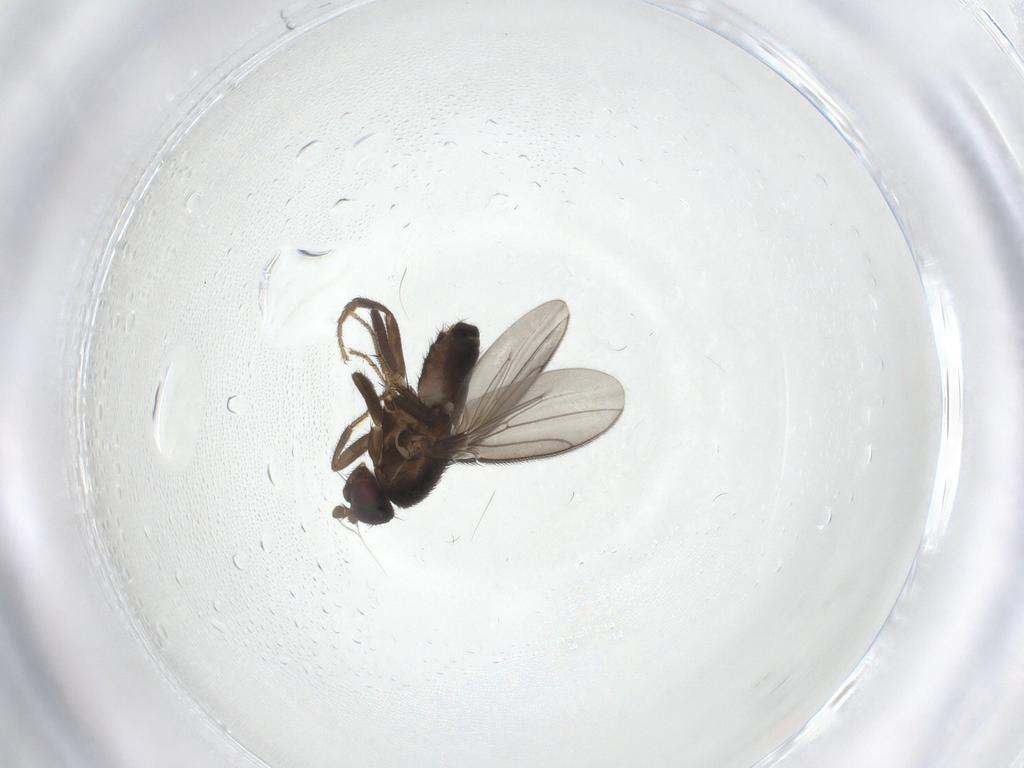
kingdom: Animalia
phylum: Arthropoda
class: Insecta
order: Diptera
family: Sphaeroceridae
